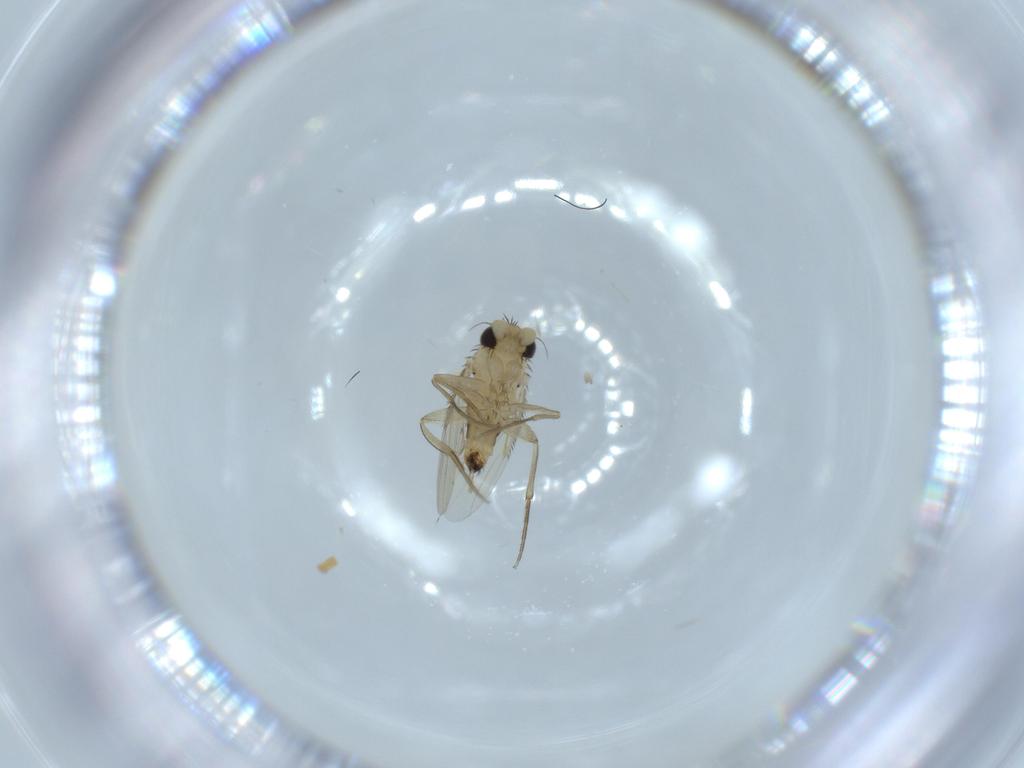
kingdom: Animalia
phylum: Arthropoda
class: Insecta
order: Diptera
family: Phoridae
